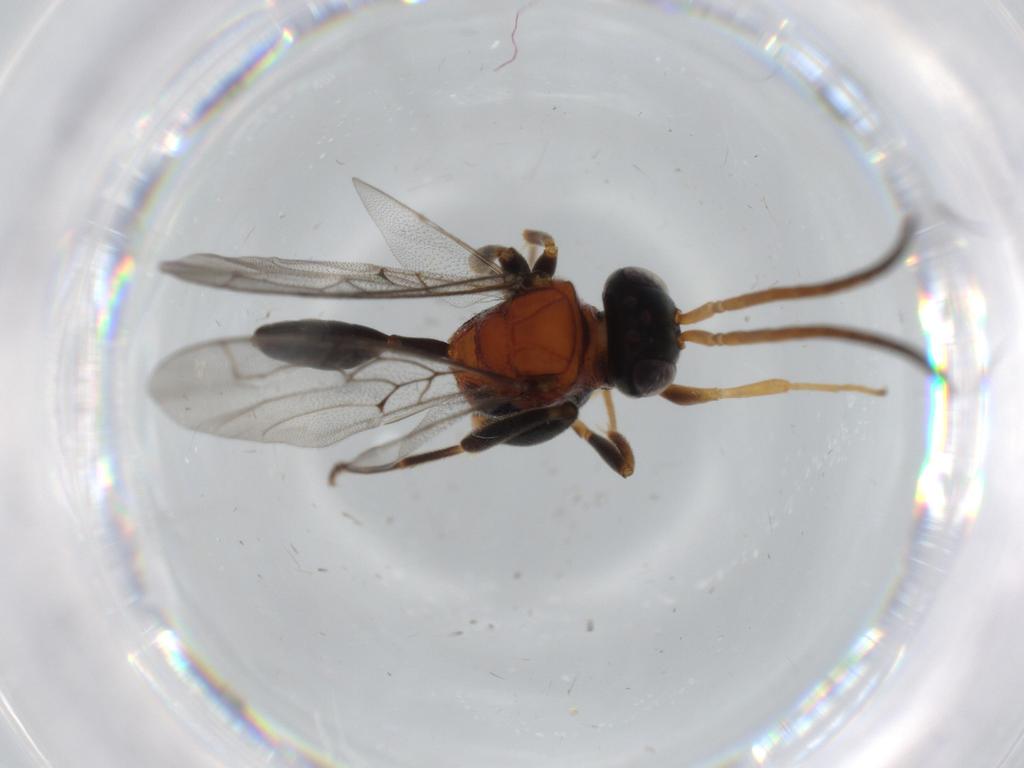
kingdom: Animalia
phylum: Arthropoda
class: Insecta
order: Hymenoptera
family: Evaniidae
